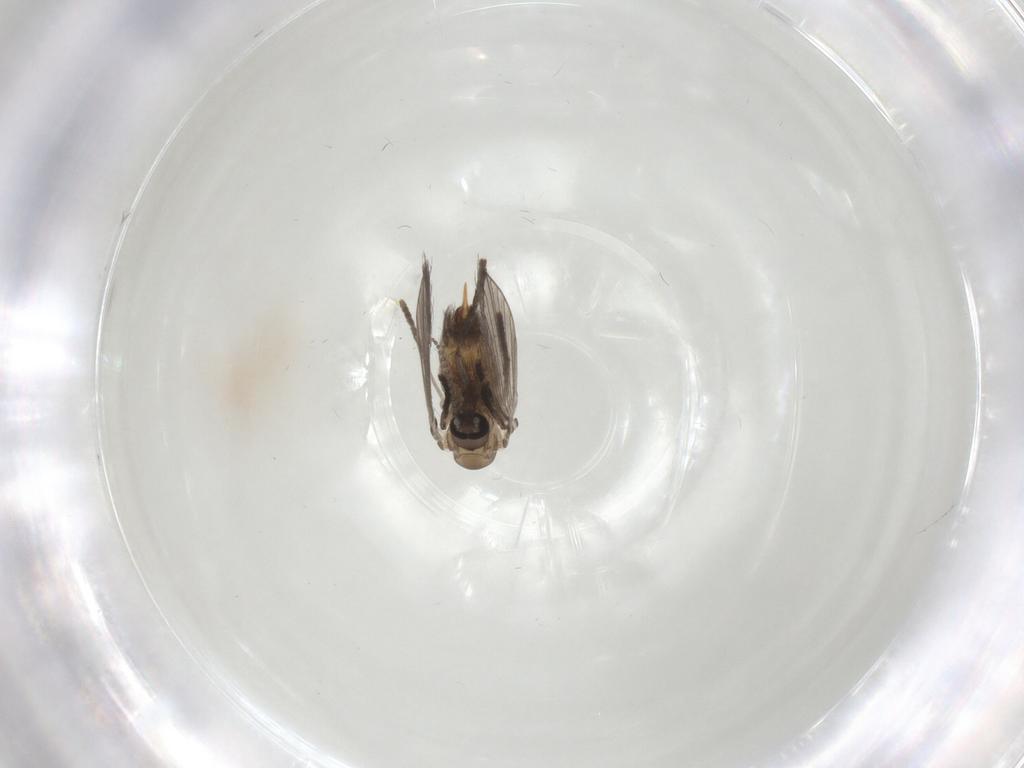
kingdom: Animalia
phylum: Arthropoda
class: Insecta
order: Diptera
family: Psychodidae
